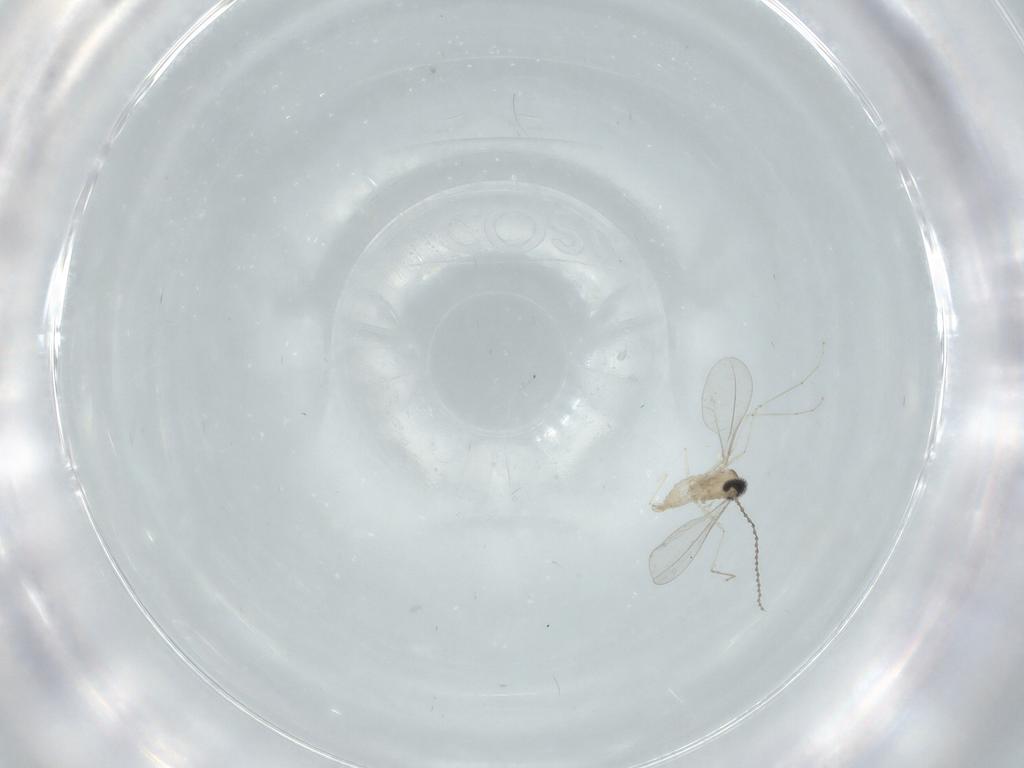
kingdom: Animalia
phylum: Arthropoda
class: Insecta
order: Diptera
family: Cecidomyiidae
